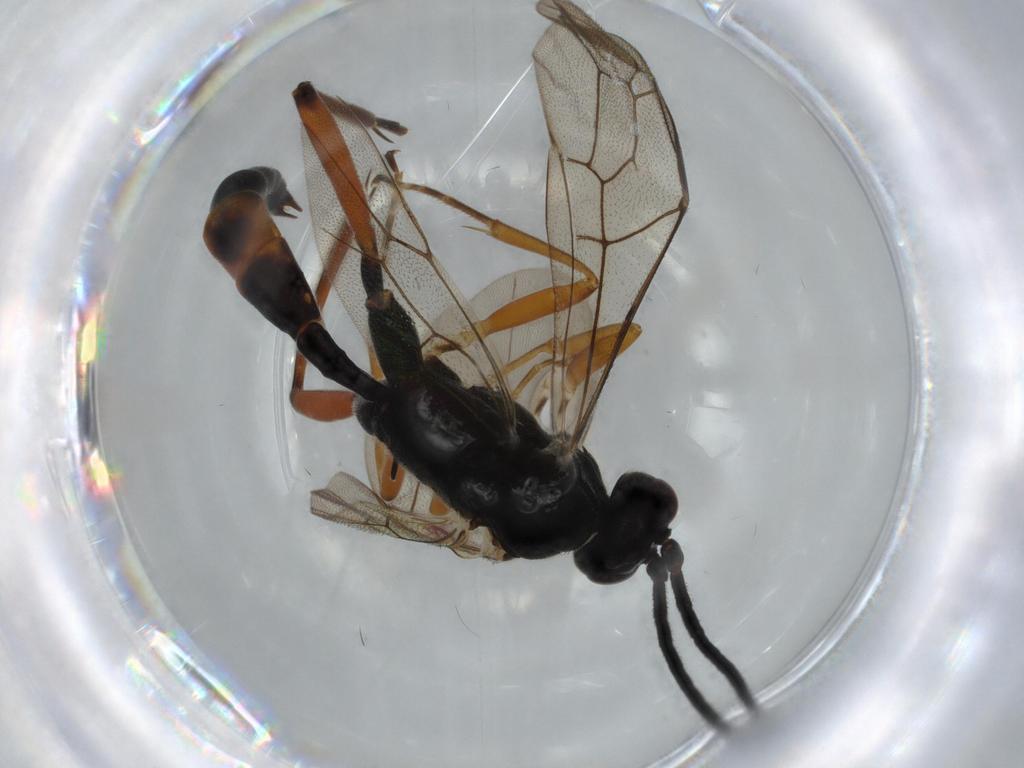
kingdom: Animalia
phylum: Arthropoda
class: Insecta
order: Hymenoptera
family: Ichneumonidae
